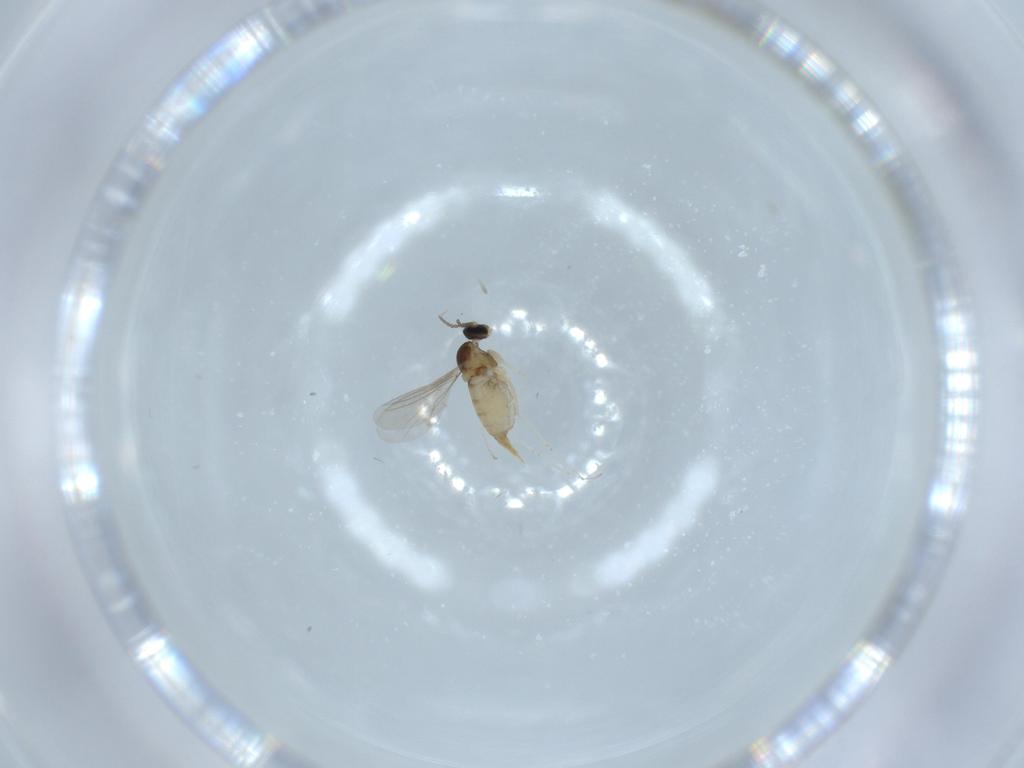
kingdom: Animalia
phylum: Arthropoda
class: Insecta
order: Diptera
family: Cecidomyiidae
